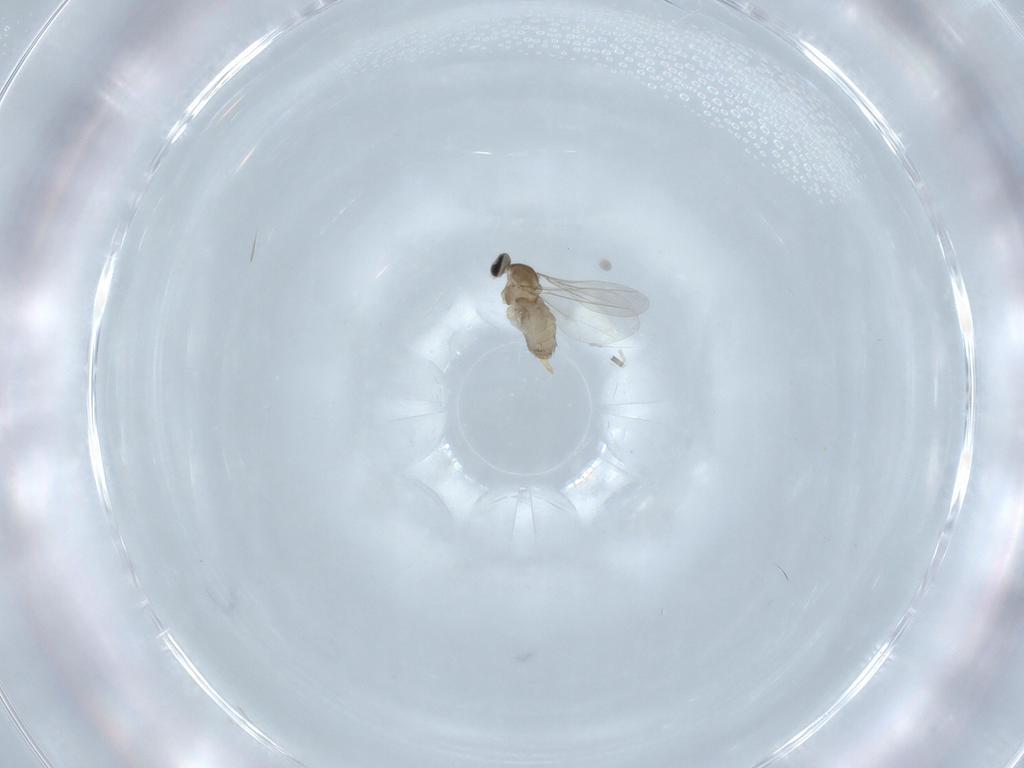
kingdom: Animalia
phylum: Arthropoda
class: Insecta
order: Diptera
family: Cecidomyiidae
